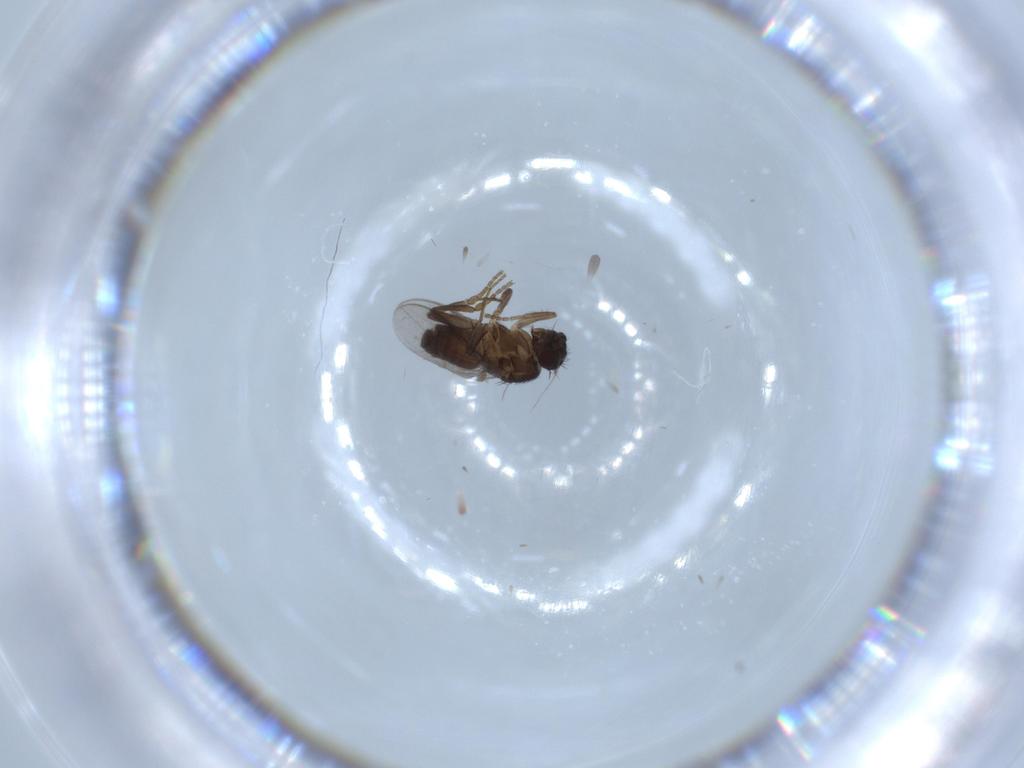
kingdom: Animalia
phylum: Arthropoda
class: Insecta
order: Diptera
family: Sphaeroceridae
